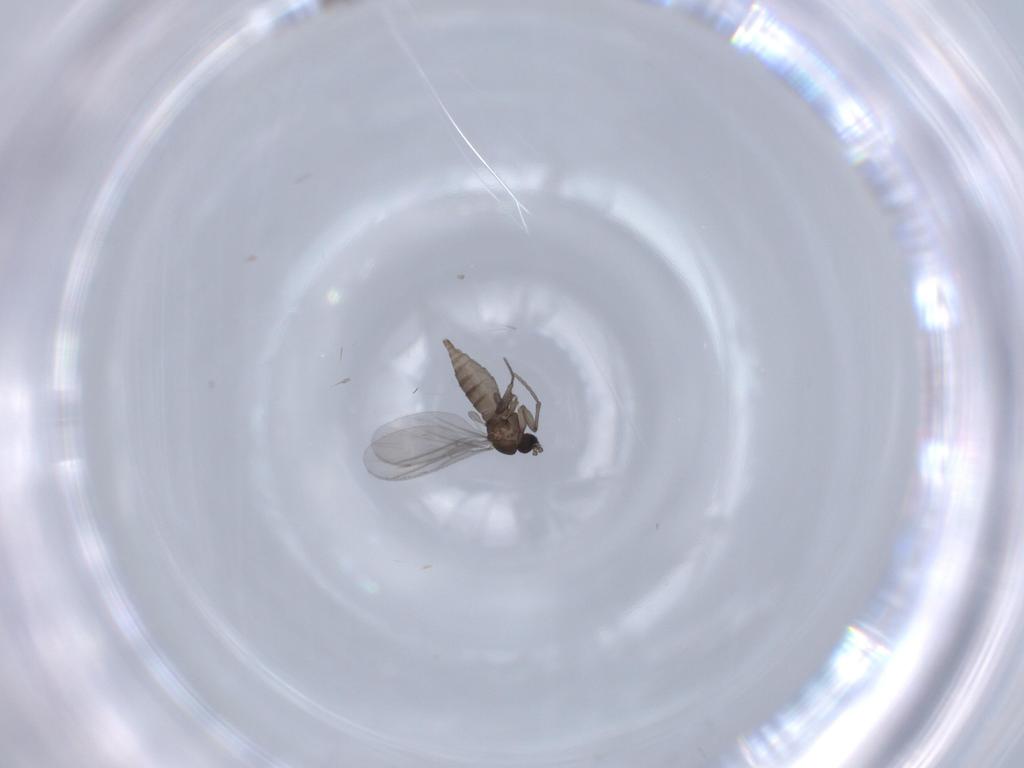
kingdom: Animalia
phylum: Arthropoda
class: Insecta
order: Diptera
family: Sciaridae
